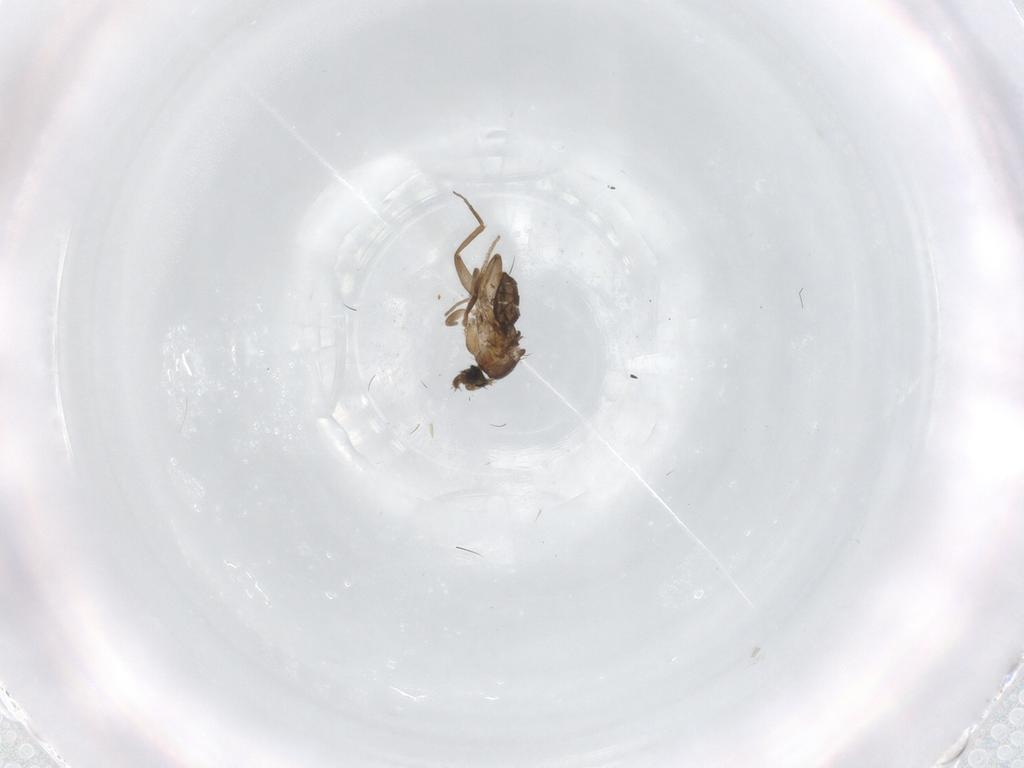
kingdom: Animalia
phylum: Arthropoda
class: Insecta
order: Diptera
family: Phoridae
